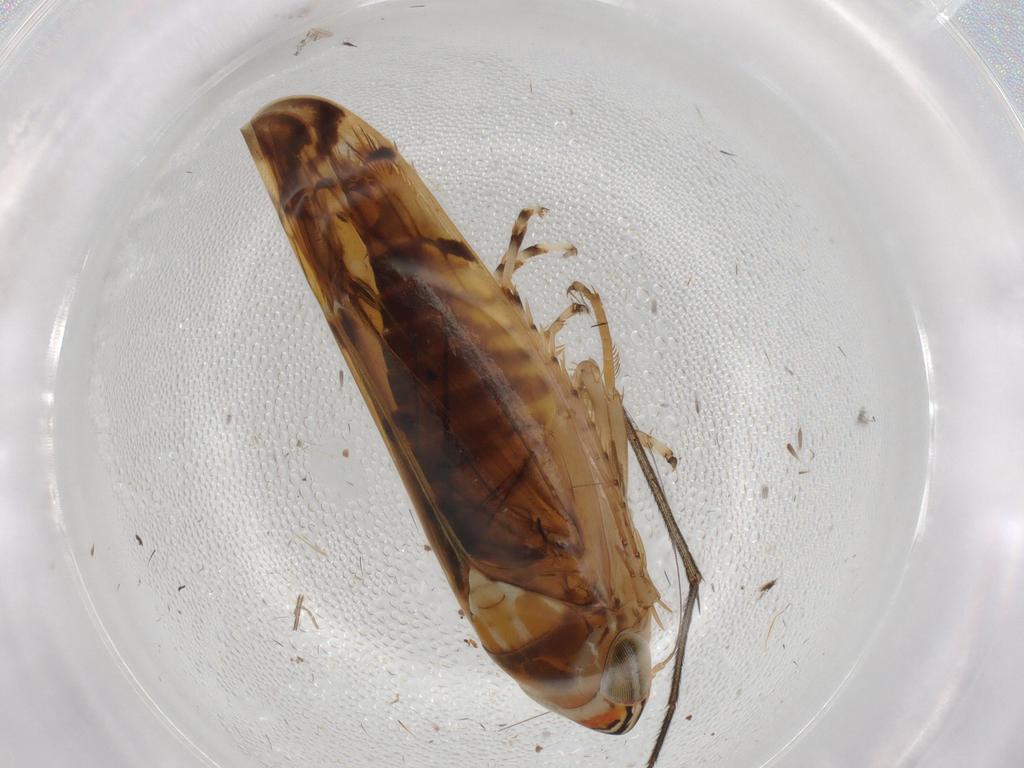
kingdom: Animalia
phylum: Arthropoda
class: Insecta
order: Hemiptera
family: Cicadellidae
